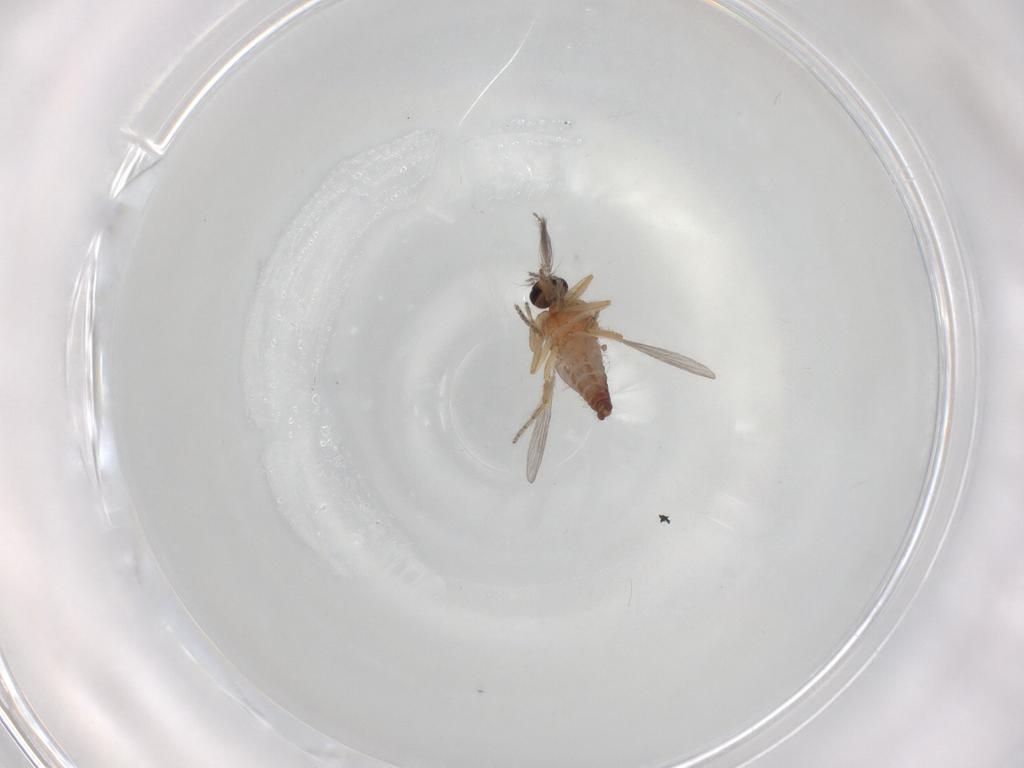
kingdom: Animalia
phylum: Arthropoda
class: Insecta
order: Diptera
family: Ceratopogonidae
